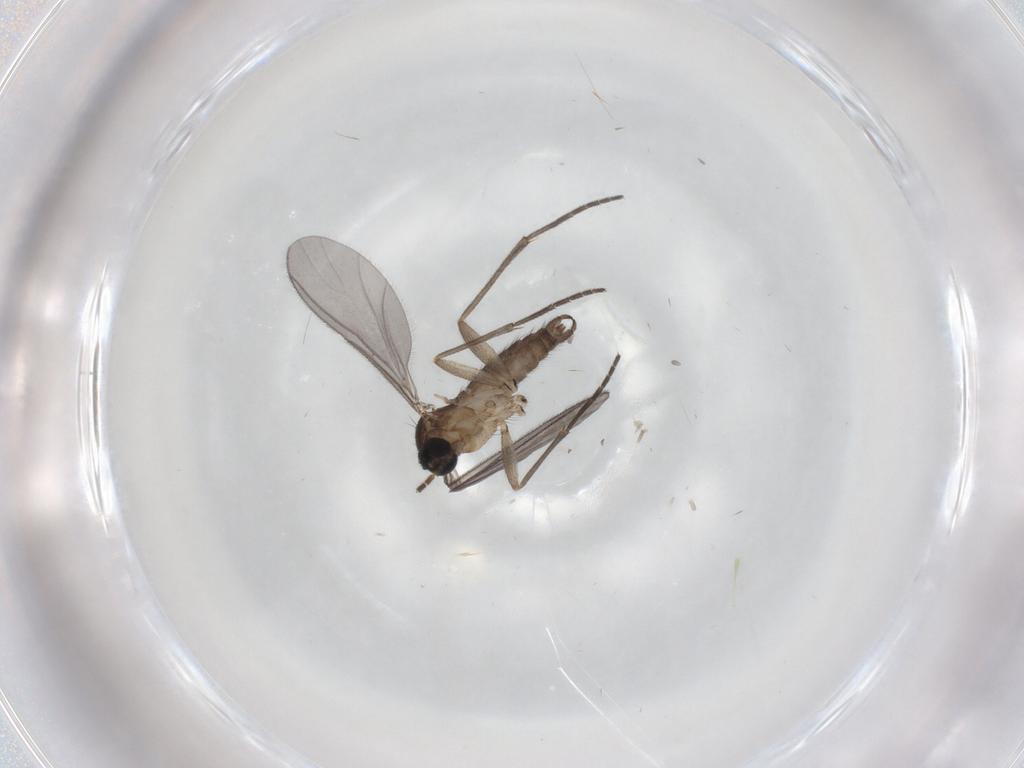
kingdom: Animalia
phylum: Arthropoda
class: Insecta
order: Diptera
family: Sciaridae
